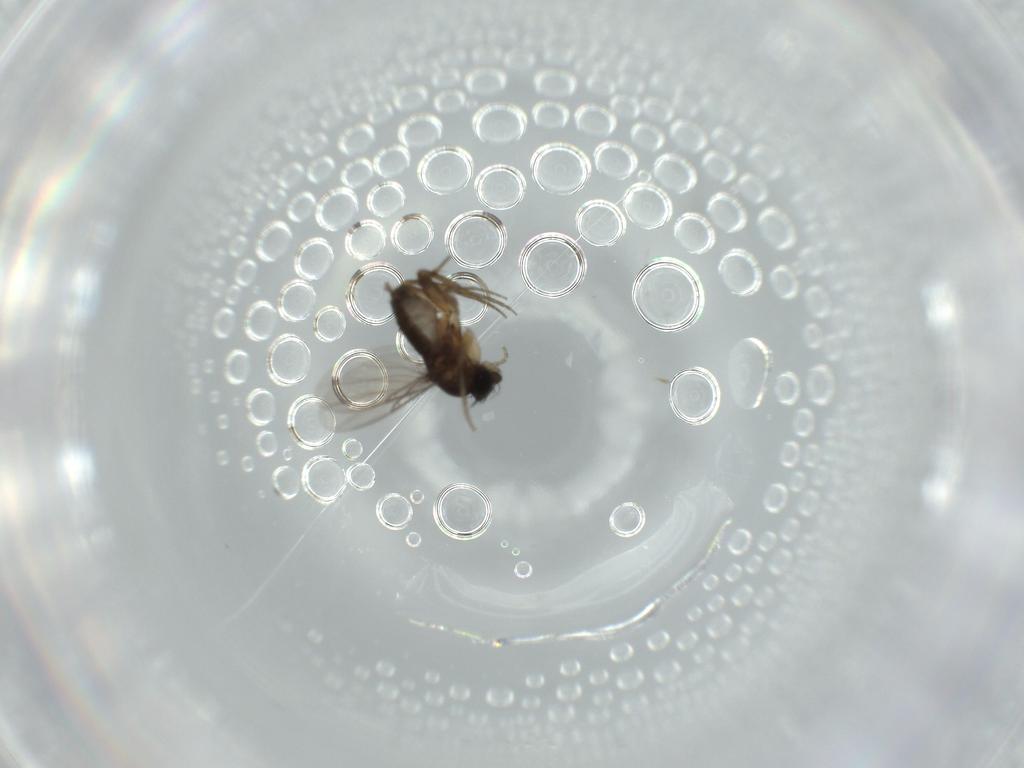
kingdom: Animalia
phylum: Arthropoda
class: Insecta
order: Diptera
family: Phoridae
